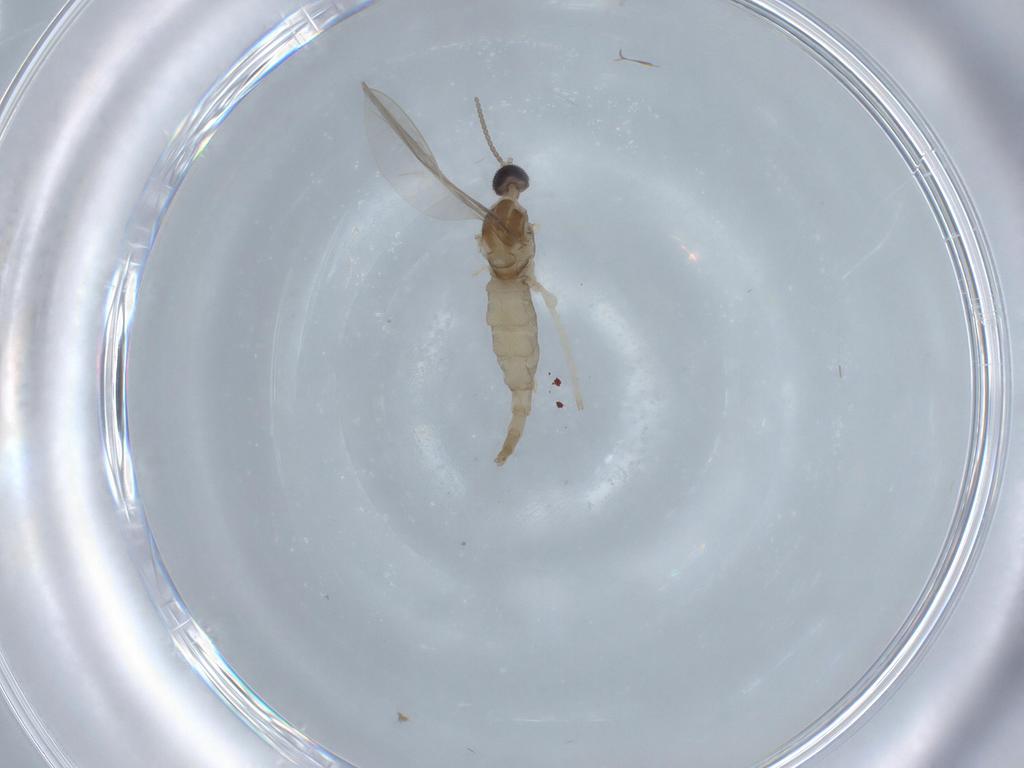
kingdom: Animalia
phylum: Arthropoda
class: Insecta
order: Diptera
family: Cecidomyiidae
